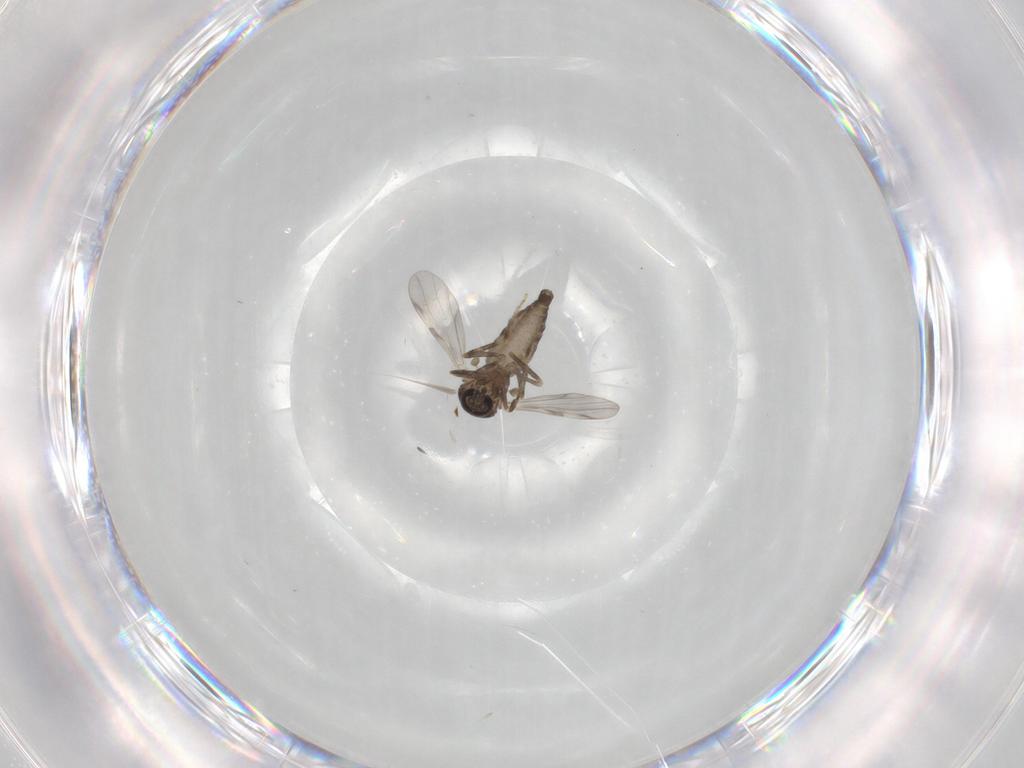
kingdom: Animalia
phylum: Arthropoda
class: Insecta
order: Diptera
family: Ceratopogonidae
